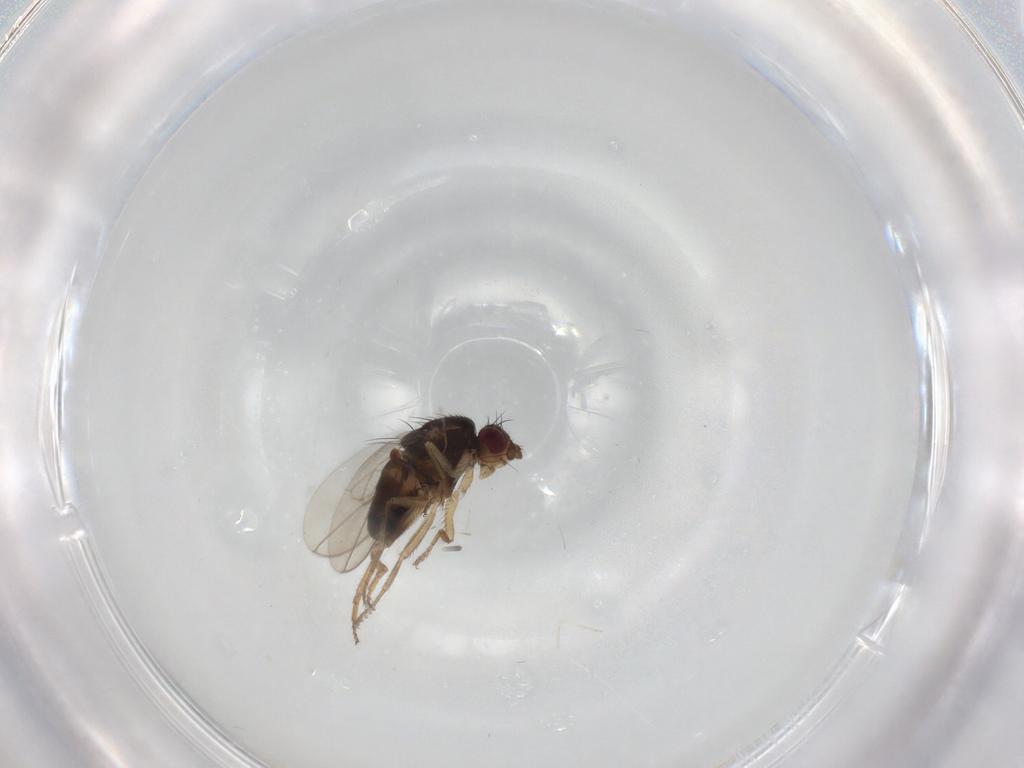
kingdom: Animalia
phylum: Arthropoda
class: Insecta
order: Diptera
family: Sphaeroceridae
